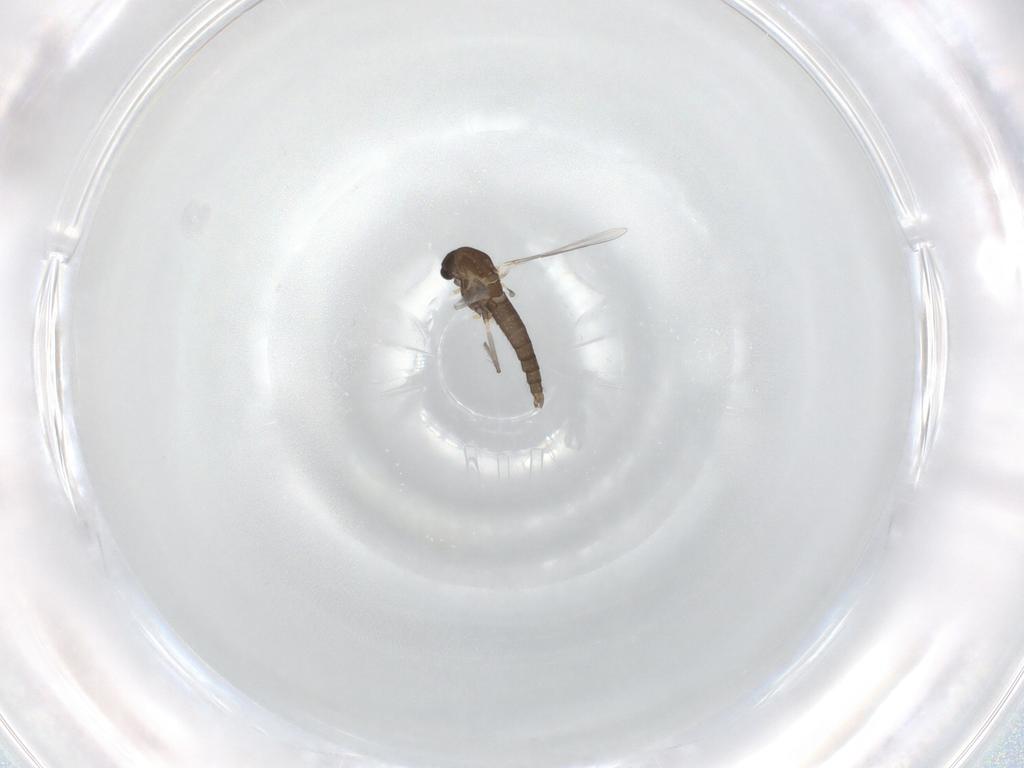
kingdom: Animalia
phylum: Arthropoda
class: Insecta
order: Diptera
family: Chironomidae
